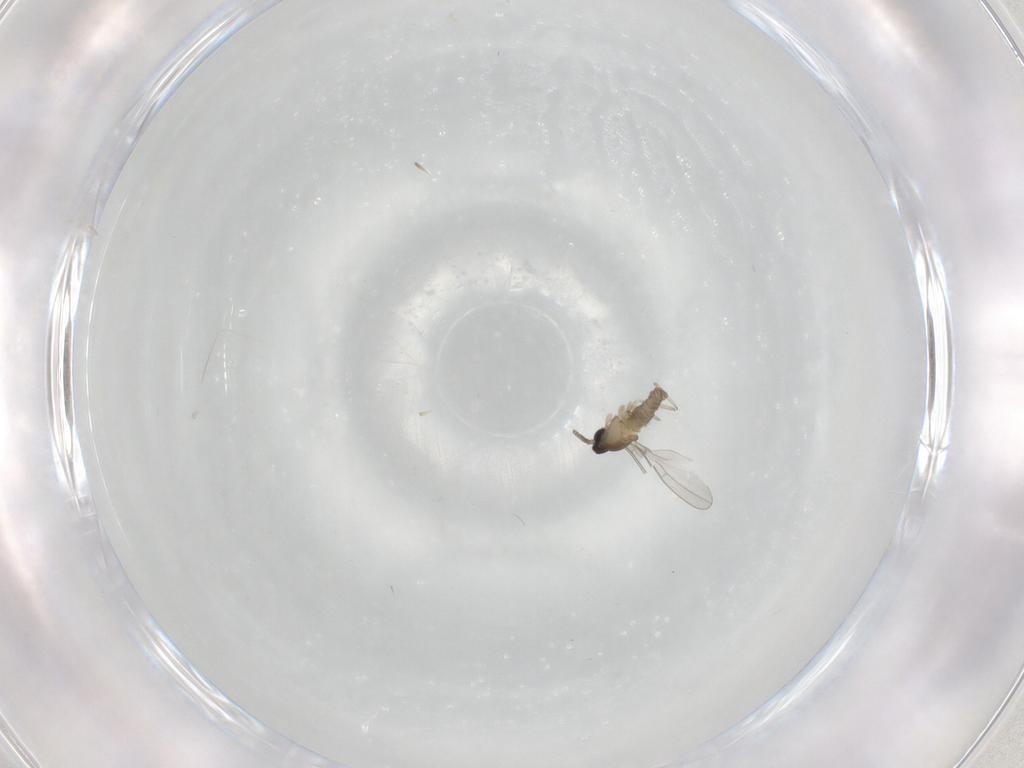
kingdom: Animalia
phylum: Arthropoda
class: Insecta
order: Diptera
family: Cecidomyiidae
